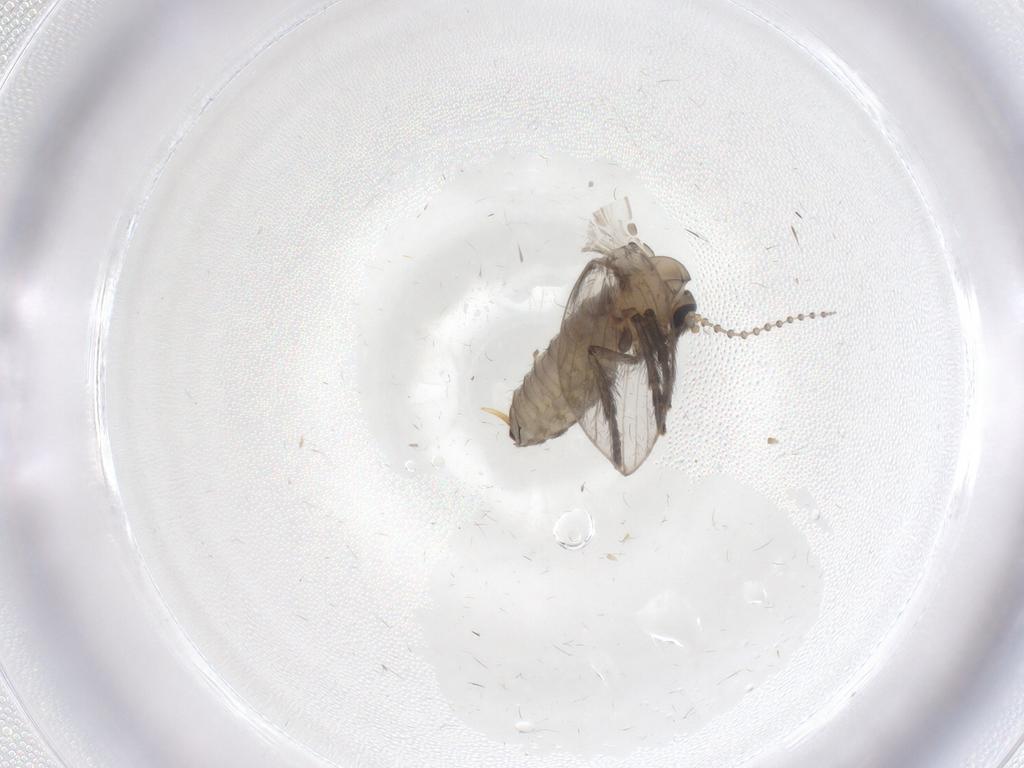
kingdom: Animalia
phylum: Arthropoda
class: Insecta
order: Diptera
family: Psychodidae
